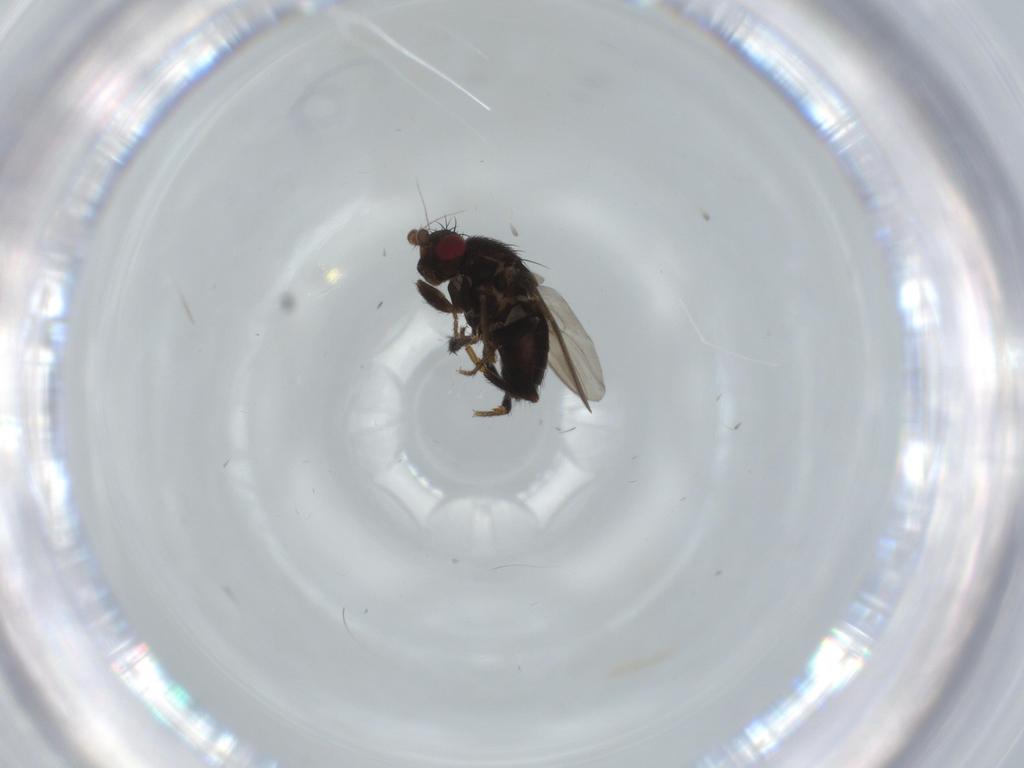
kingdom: Animalia
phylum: Arthropoda
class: Insecta
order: Diptera
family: Sphaeroceridae
